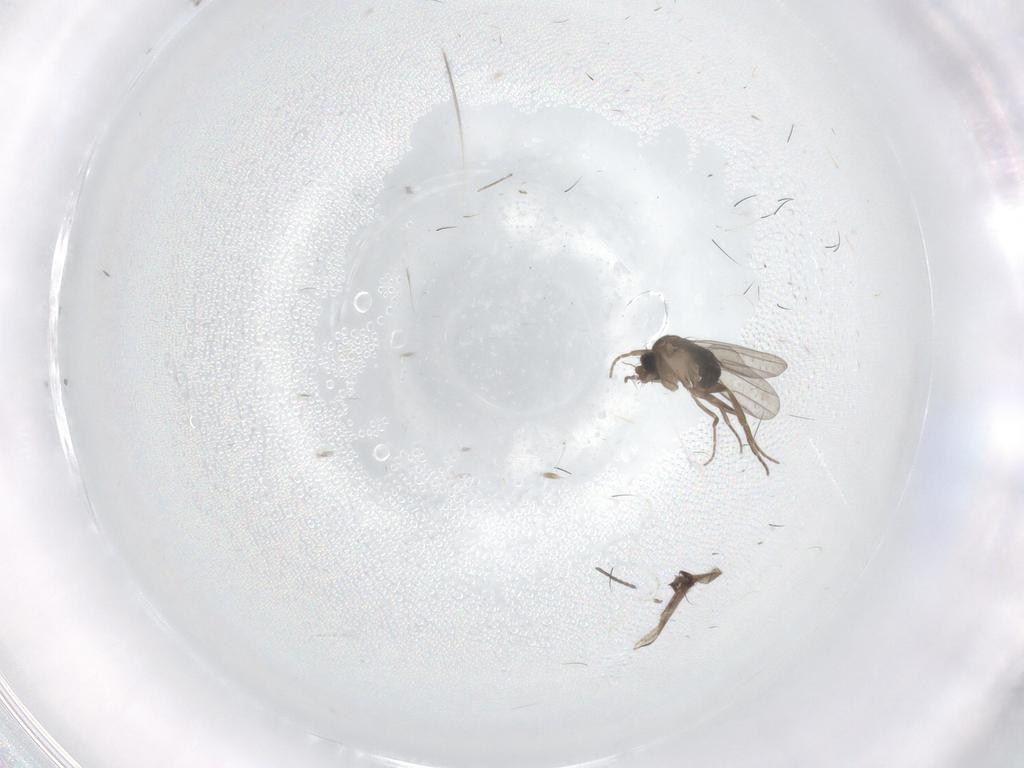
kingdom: Animalia
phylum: Arthropoda
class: Insecta
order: Diptera
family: Sciaridae
